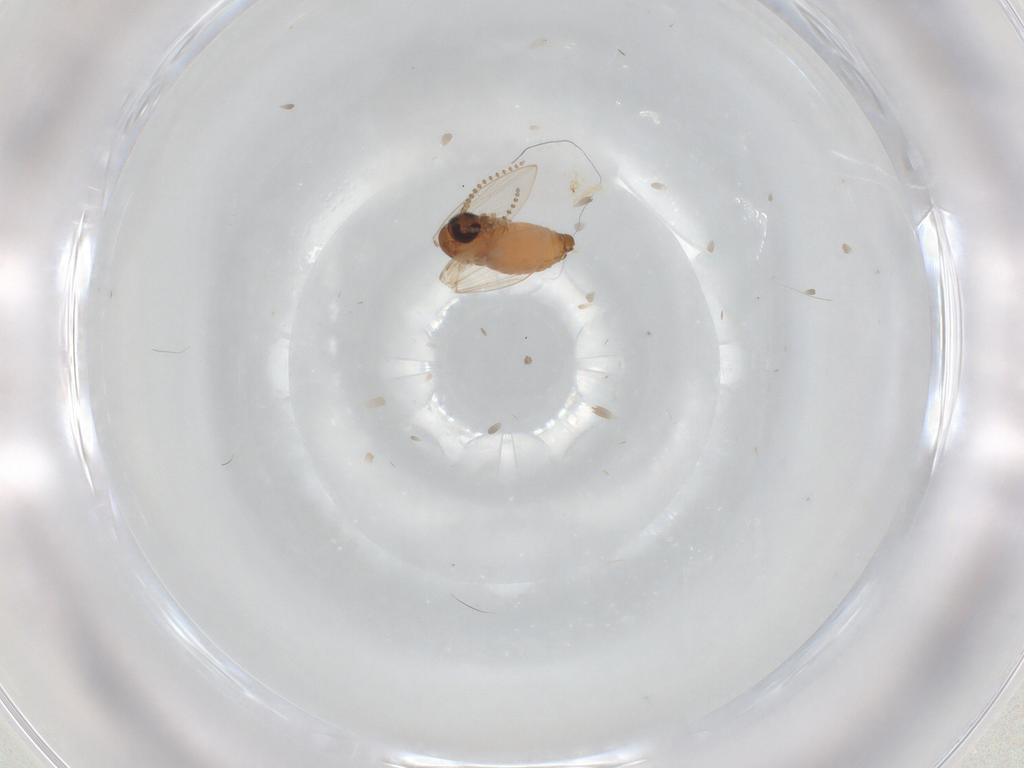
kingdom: Animalia
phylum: Arthropoda
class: Insecta
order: Diptera
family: Psychodidae
